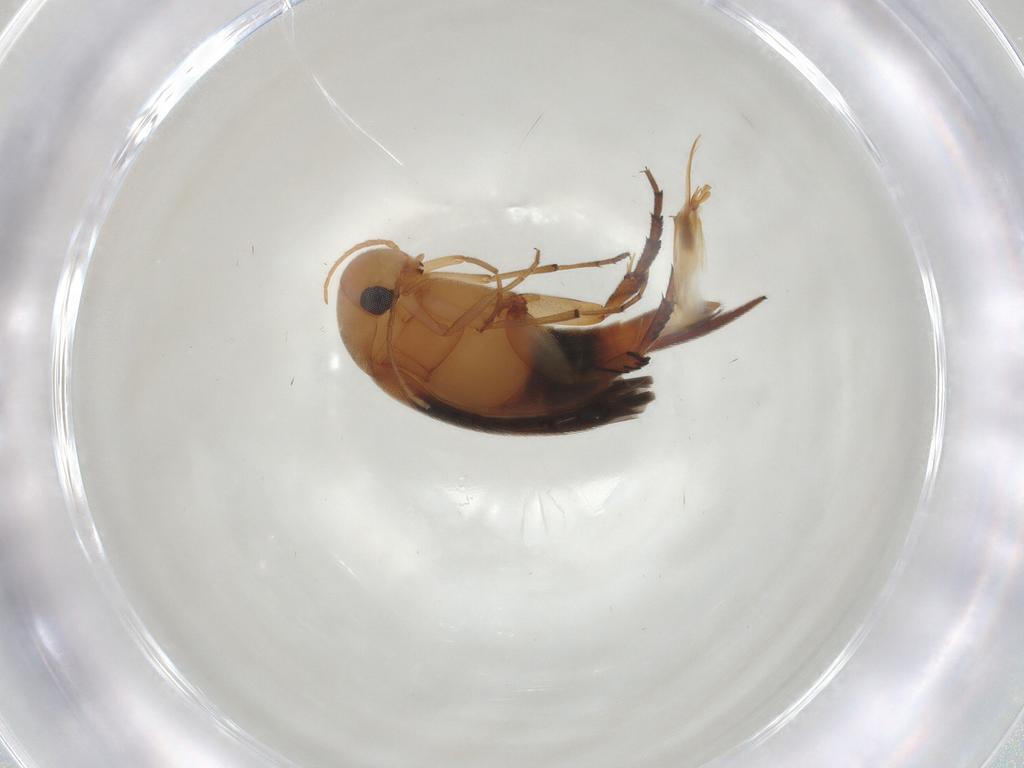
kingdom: Animalia
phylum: Arthropoda
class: Insecta
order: Coleoptera
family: Mordellidae
